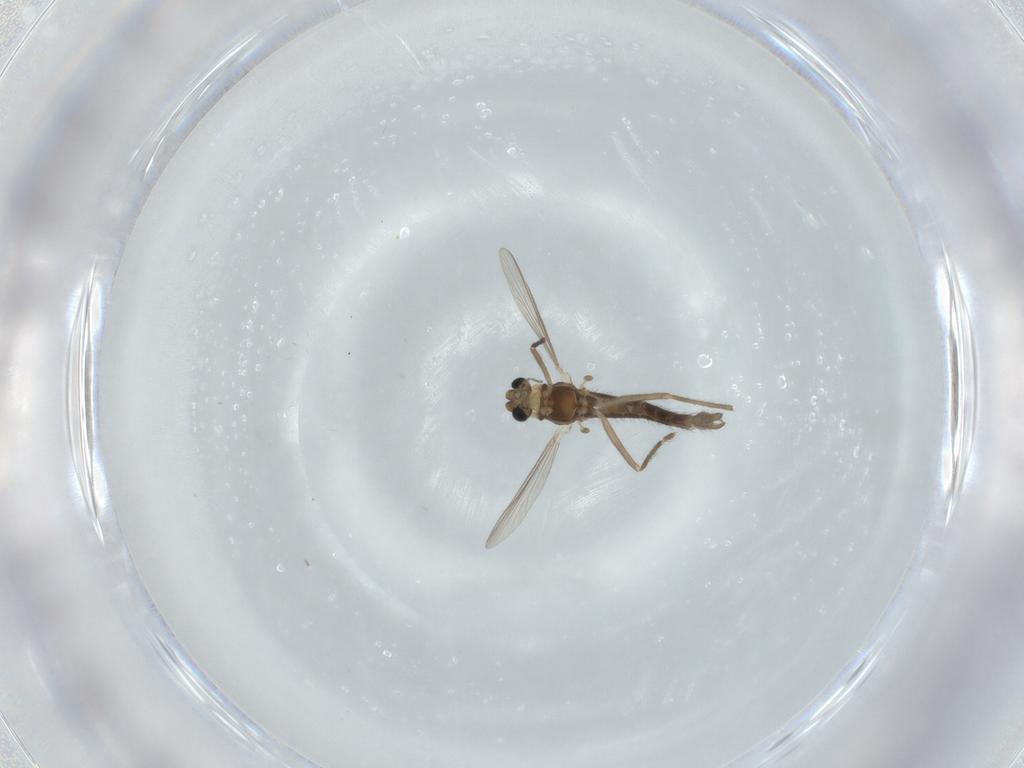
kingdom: Animalia
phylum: Arthropoda
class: Insecta
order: Diptera
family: Chironomidae
